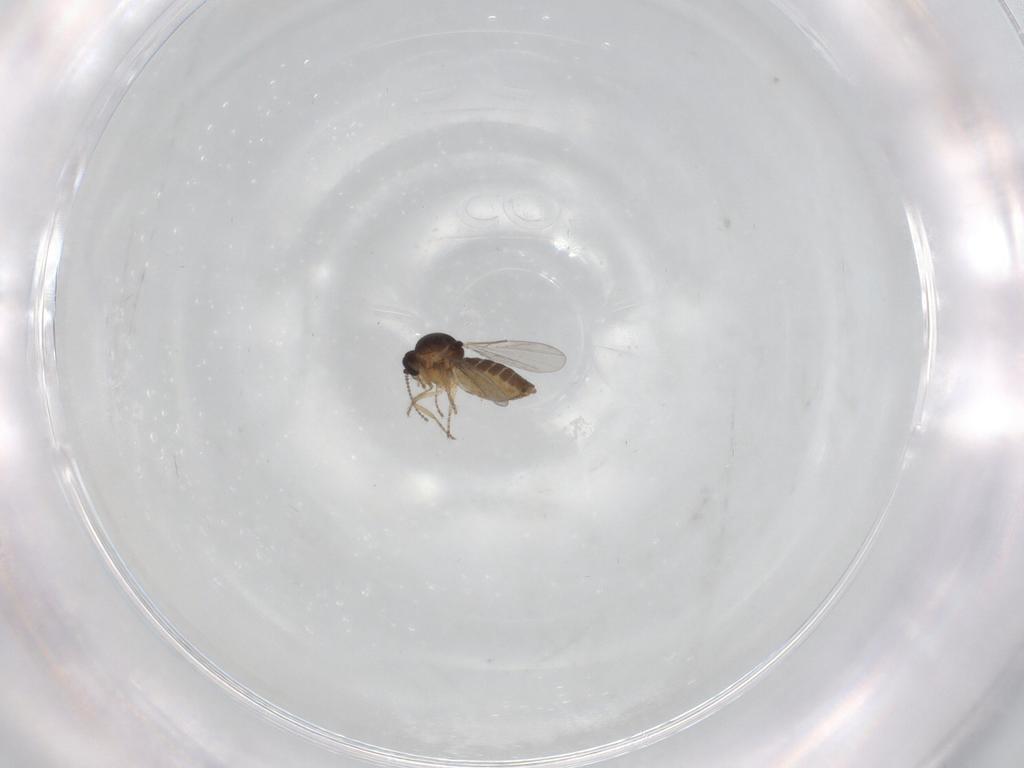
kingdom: Animalia
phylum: Arthropoda
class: Insecta
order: Diptera
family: Ceratopogonidae
